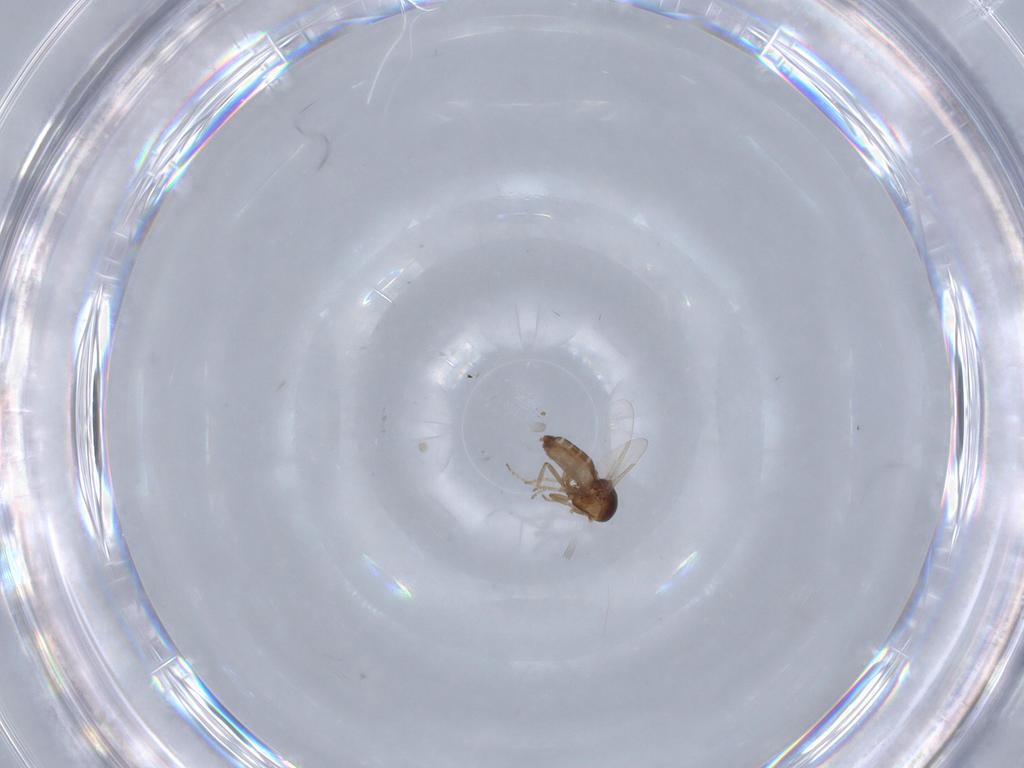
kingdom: Animalia
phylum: Arthropoda
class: Insecta
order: Diptera
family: Ceratopogonidae
